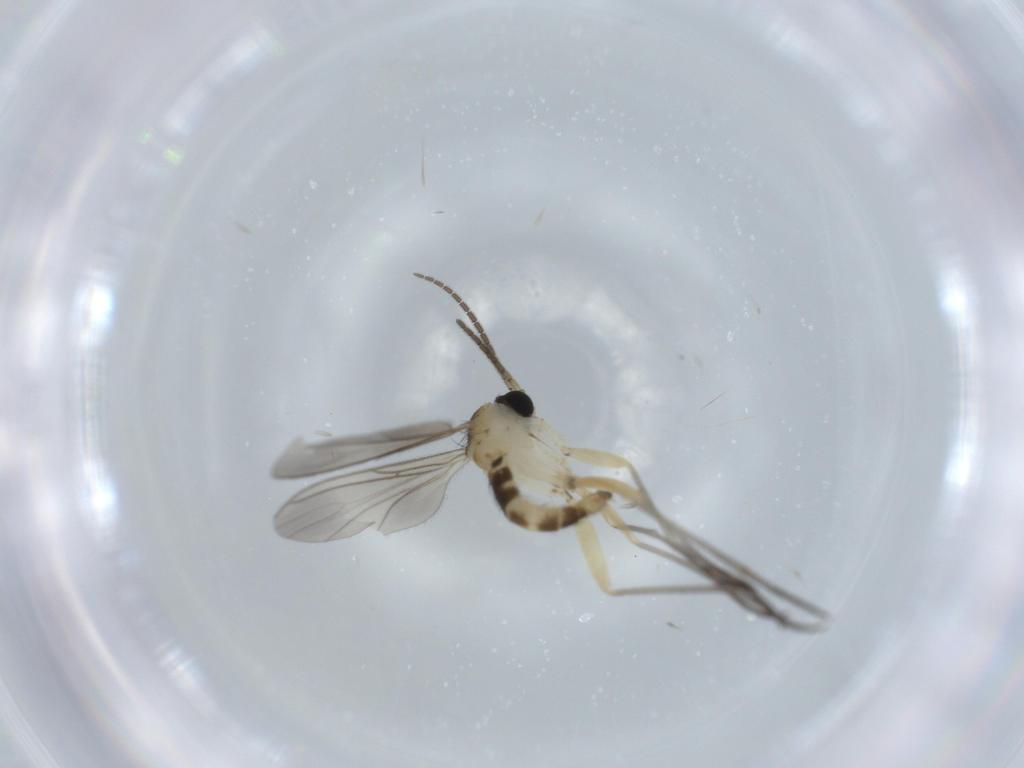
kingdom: Animalia
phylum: Arthropoda
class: Insecta
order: Diptera
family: Sciaridae
